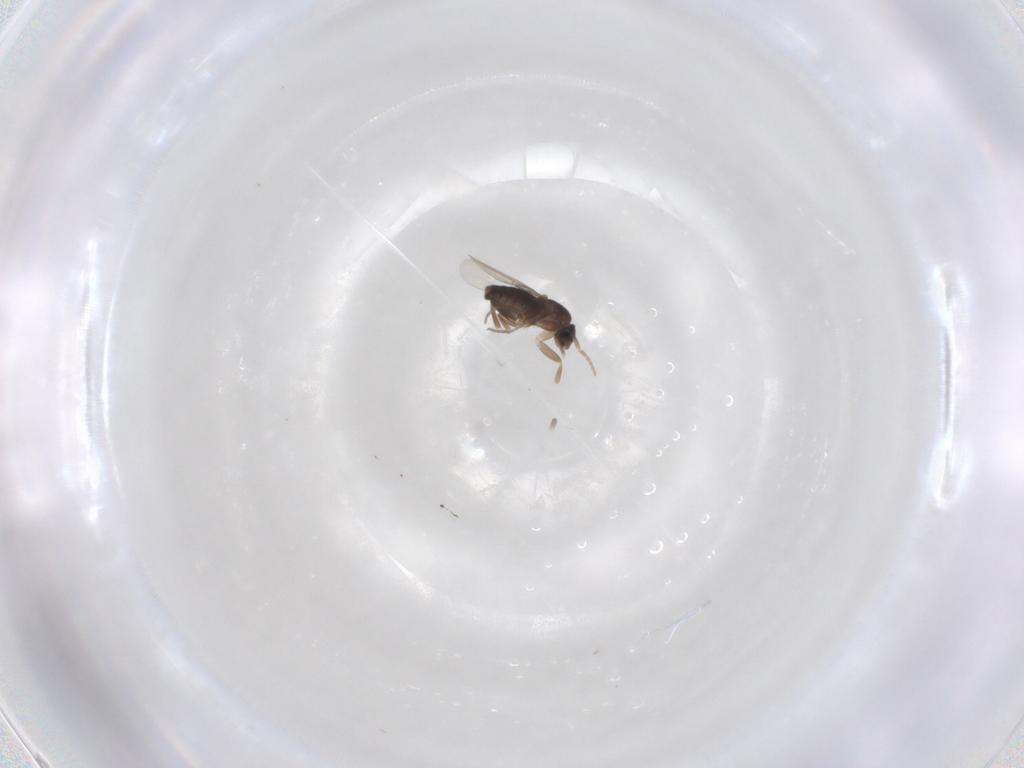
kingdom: Animalia
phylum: Arthropoda
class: Insecta
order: Diptera
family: Phoridae
